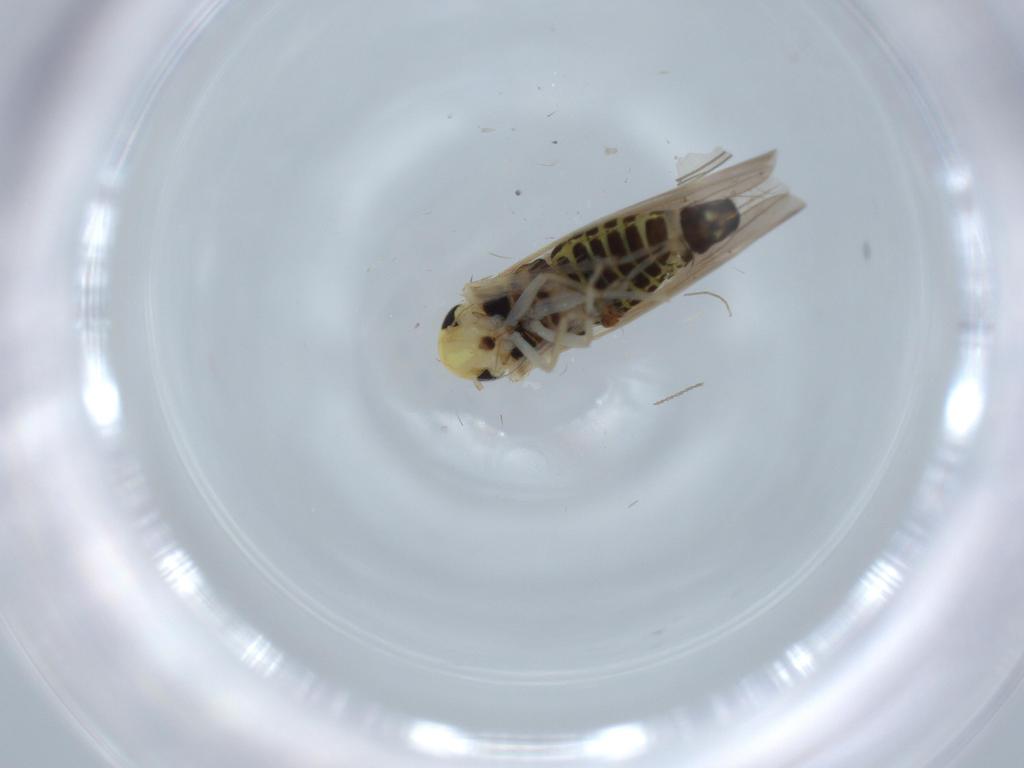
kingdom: Animalia
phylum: Arthropoda
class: Insecta
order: Hemiptera
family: Cicadellidae
